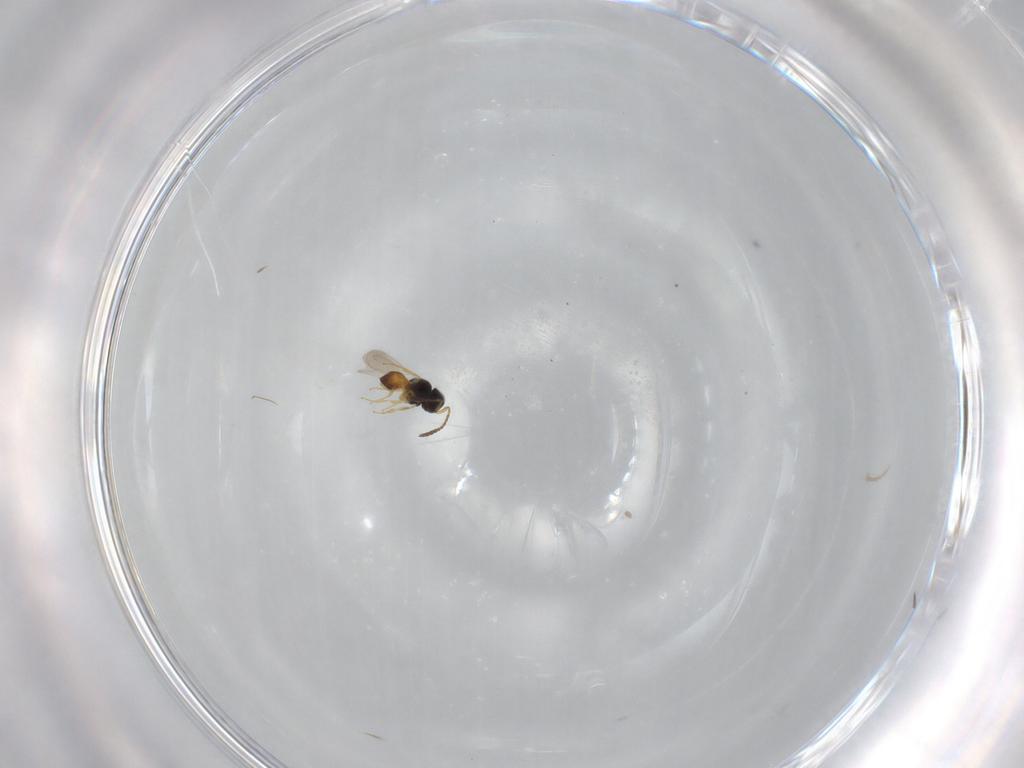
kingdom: Animalia
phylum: Arthropoda
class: Insecta
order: Hymenoptera
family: Scelionidae
